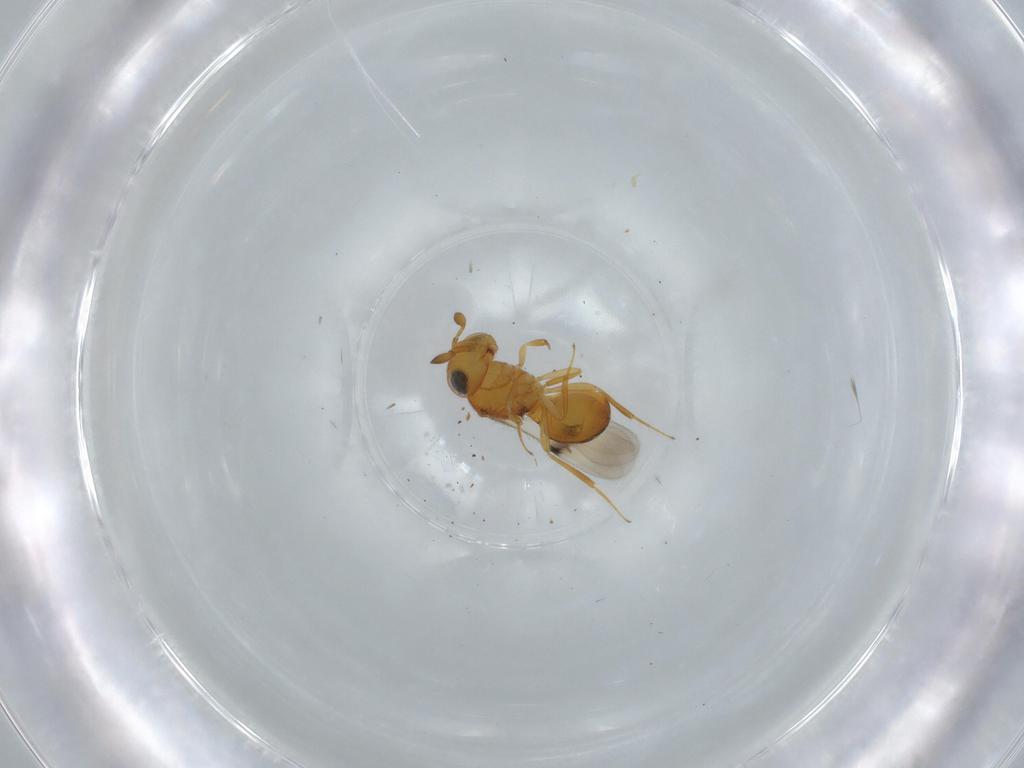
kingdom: Animalia
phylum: Arthropoda
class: Insecta
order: Hymenoptera
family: Scelionidae
